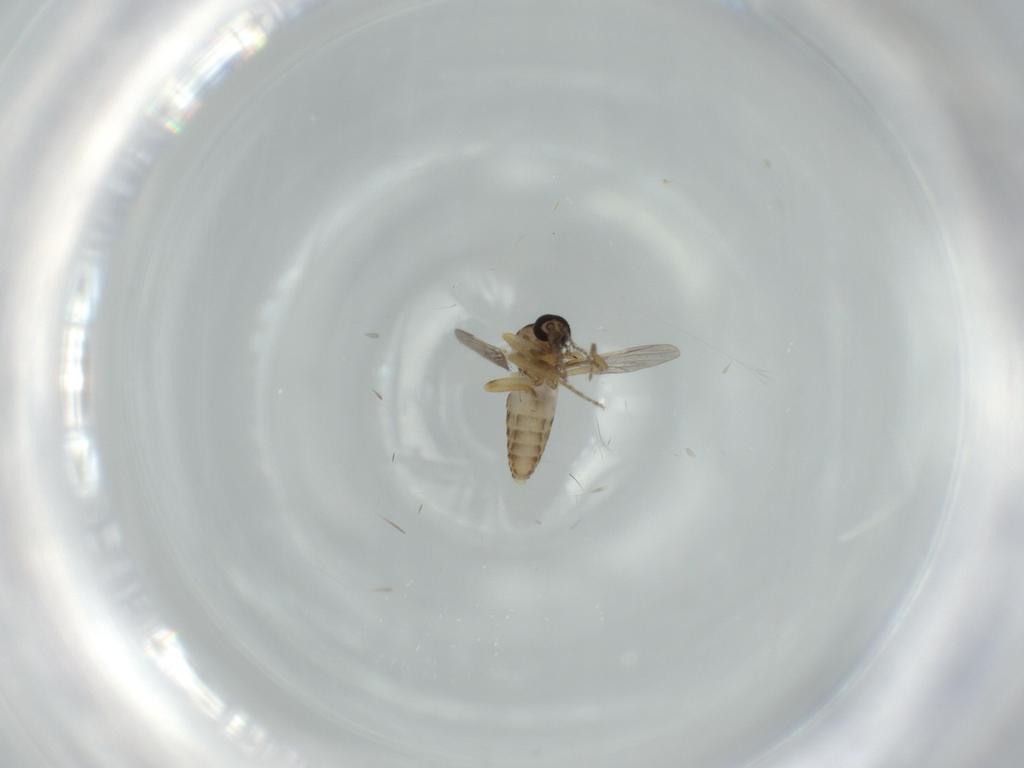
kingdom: Animalia
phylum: Arthropoda
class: Insecta
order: Diptera
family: Ceratopogonidae
